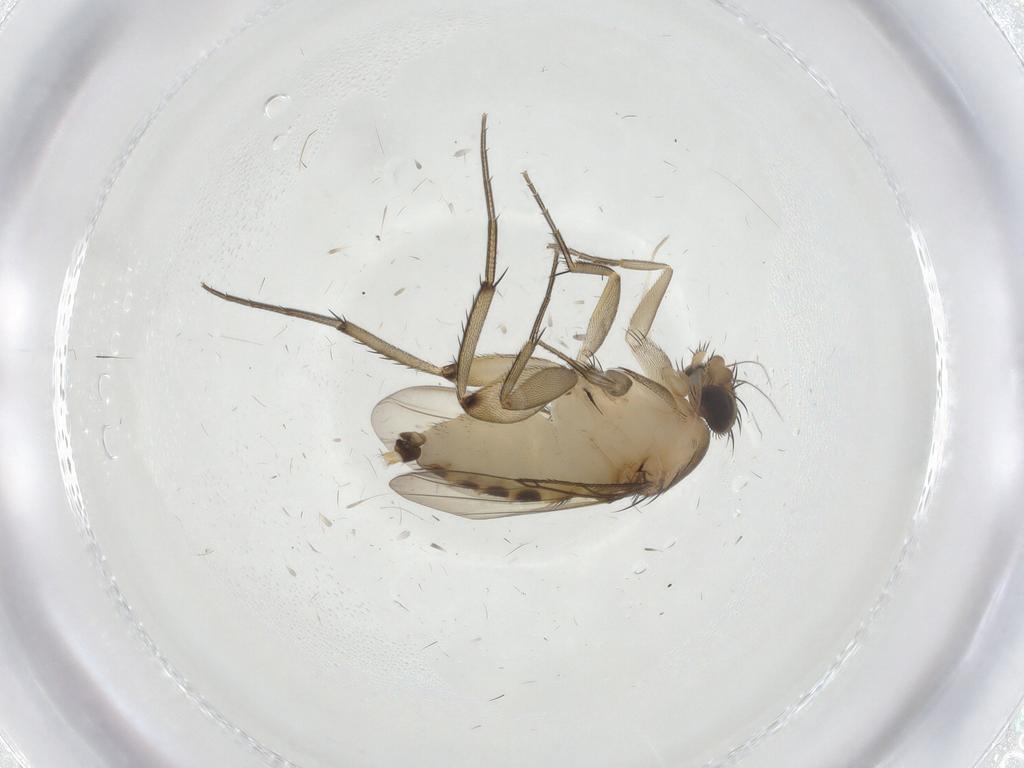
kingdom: Animalia
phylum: Arthropoda
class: Insecta
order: Diptera
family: Phoridae
